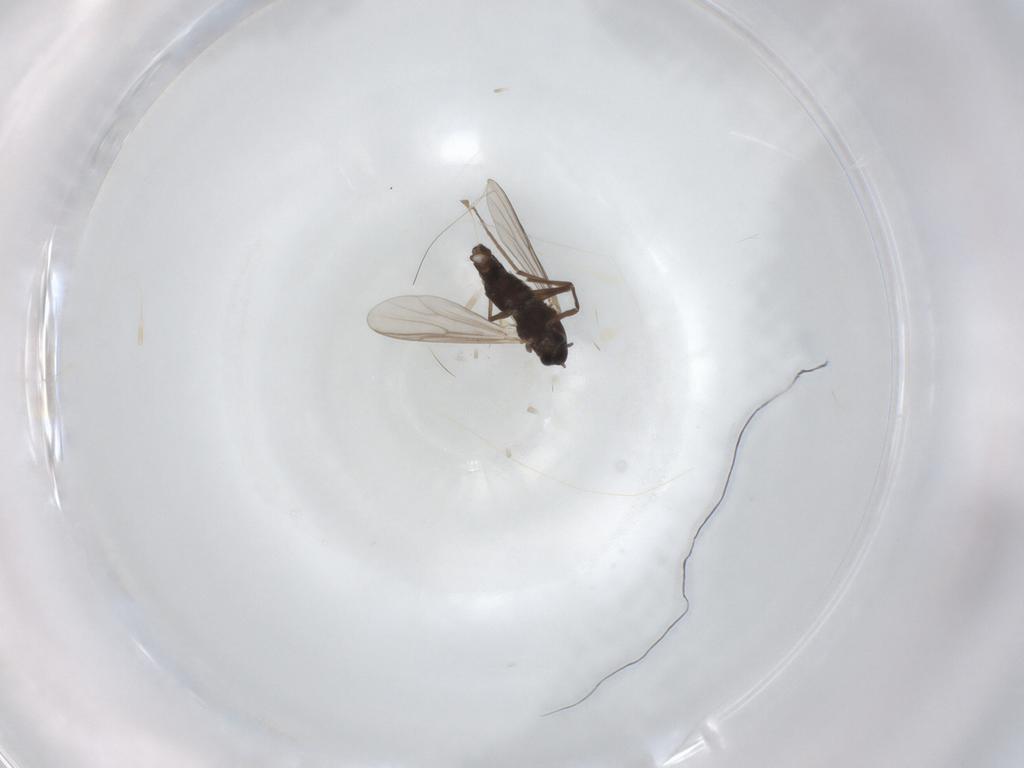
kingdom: Animalia
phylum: Arthropoda
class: Insecta
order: Diptera
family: Chironomidae
